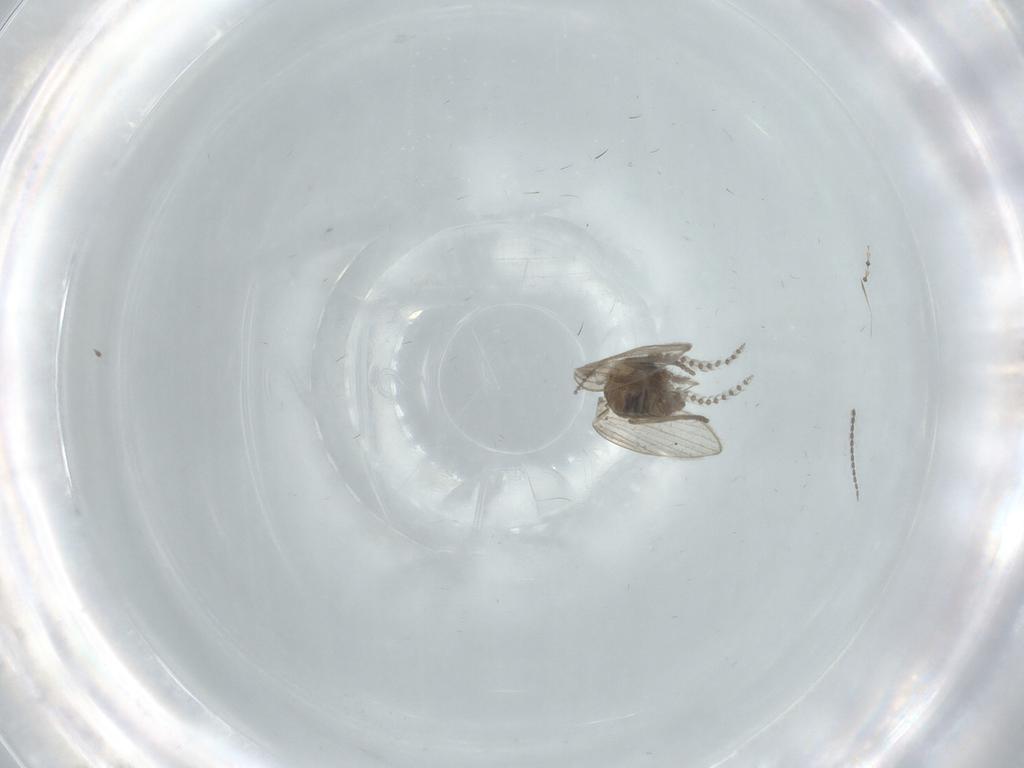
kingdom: Animalia
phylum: Arthropoda
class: Insecta
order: Diptera
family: Psychodidae
